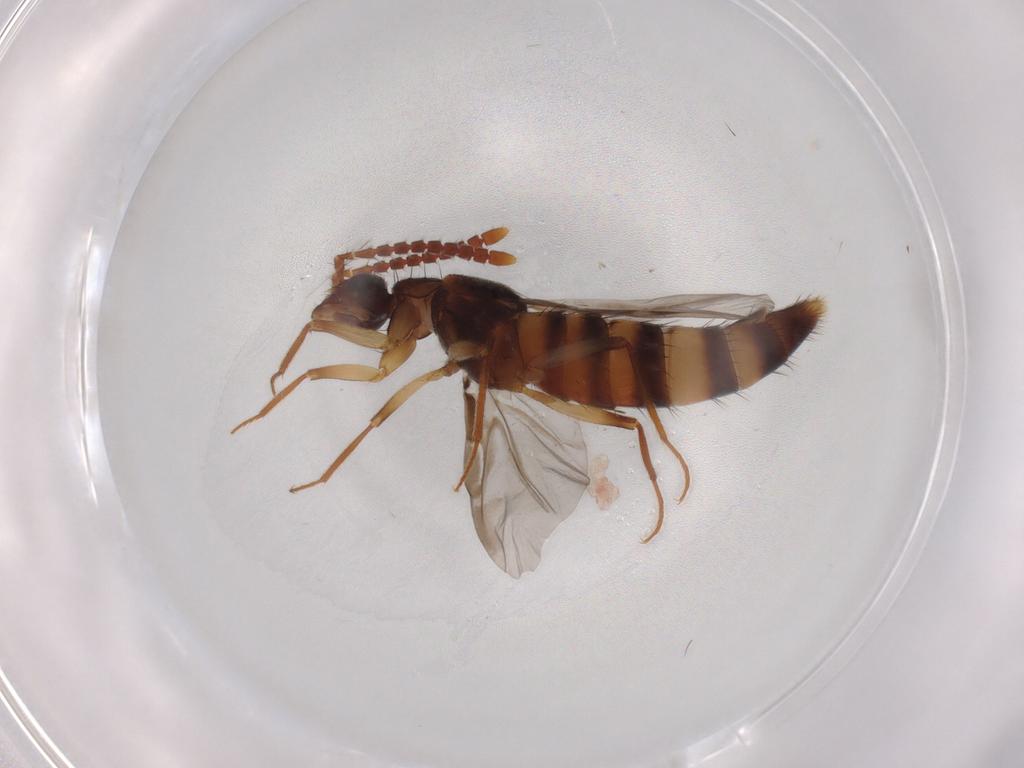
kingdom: Animalia
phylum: Arthropoda
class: Insecta
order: Coleoptera
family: Staphylinidae
